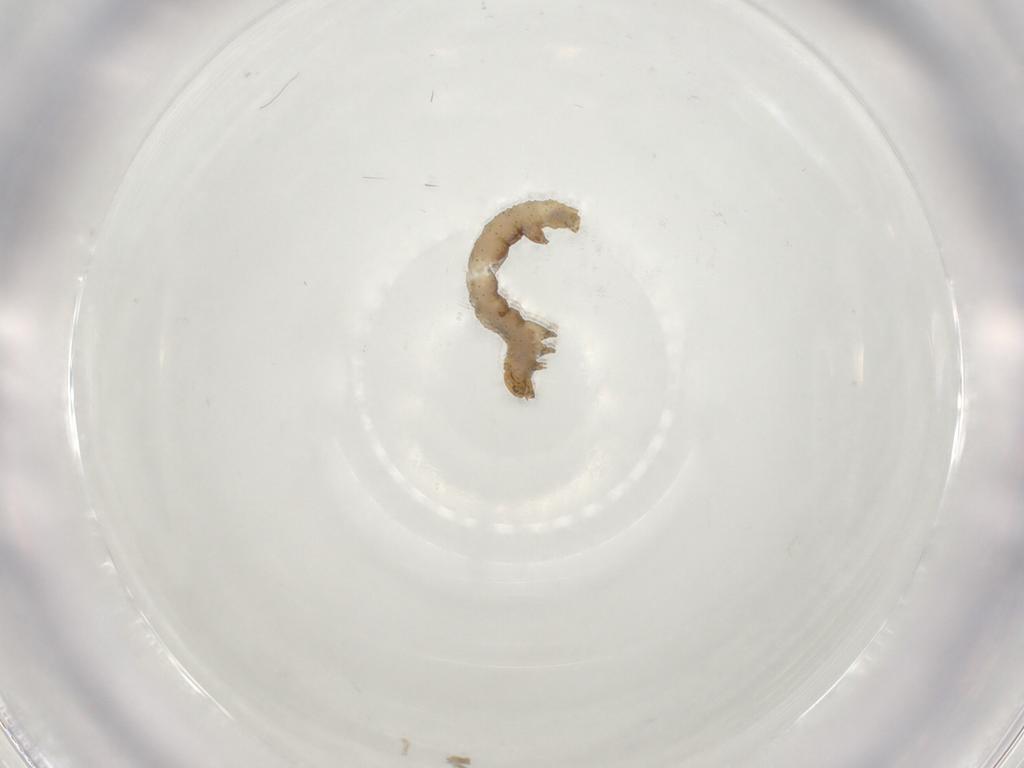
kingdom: Animalia
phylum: Arthropoda
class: Insecta
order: Lepidoptera
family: Geometridae
